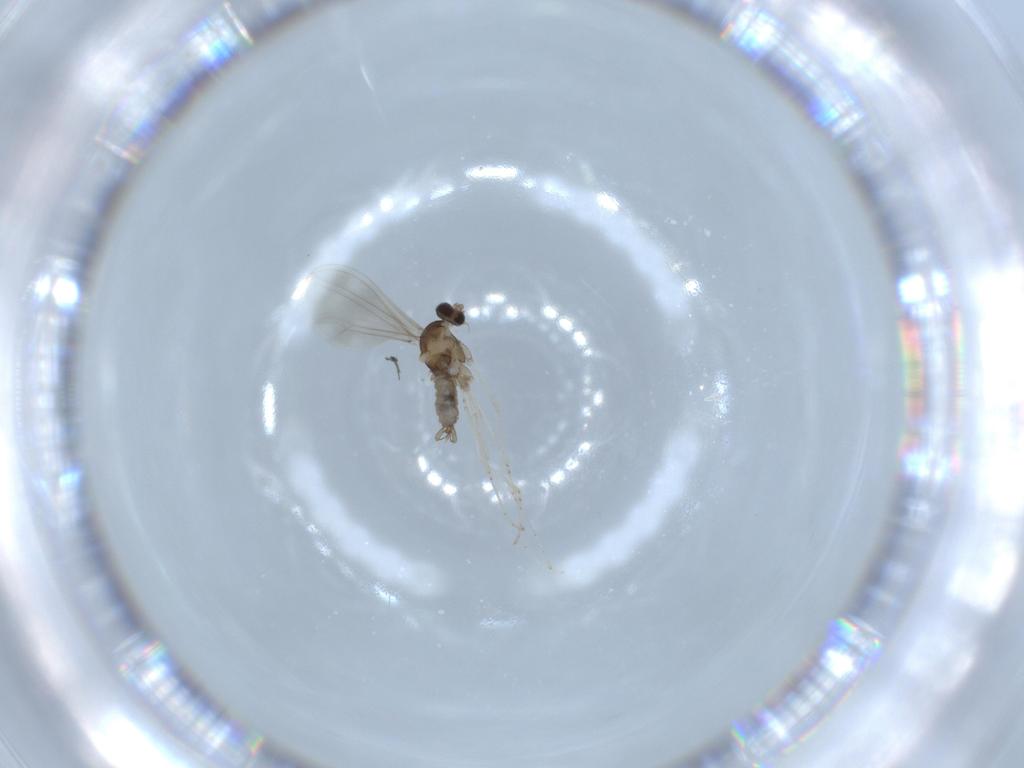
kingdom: Animalia
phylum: Arthropoda
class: Insecta
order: Diptera
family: Cecidomyiidae
